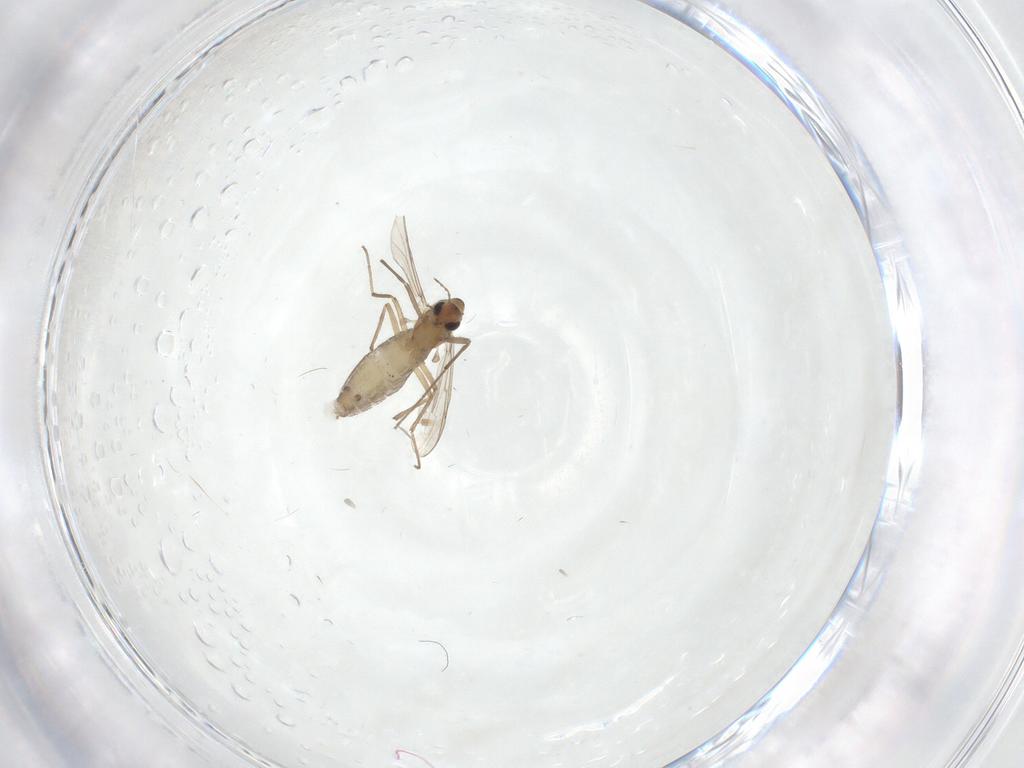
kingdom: Animalia
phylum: Arthropoda
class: Insecta
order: Diptera
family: Chironomidae
